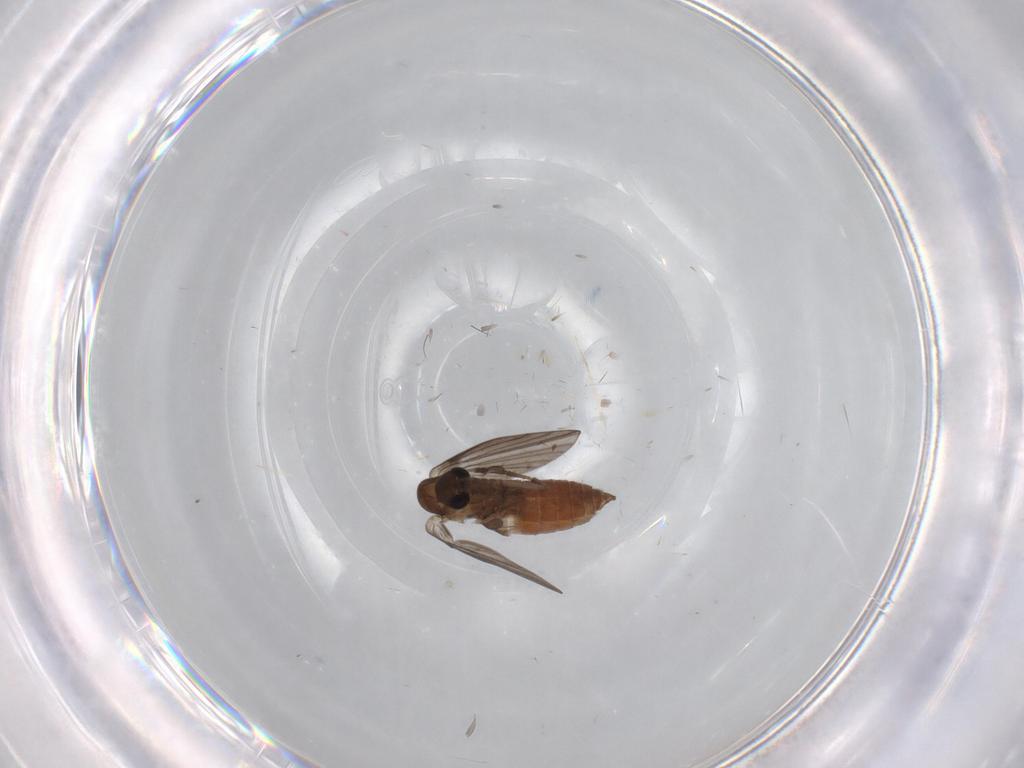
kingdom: Animalia
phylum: Arthropoda
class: Insecta
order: Diptera
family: Psychodidae
